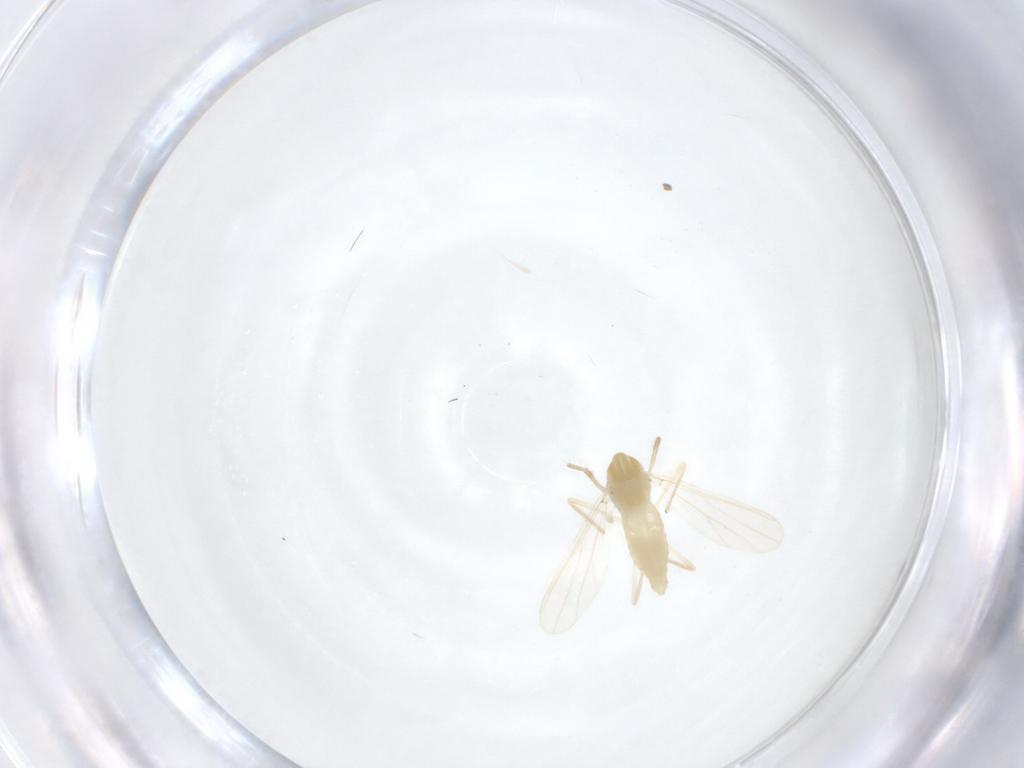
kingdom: Animalia
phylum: Arthropoda
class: Insecta
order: Diptera
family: Chironomidae
